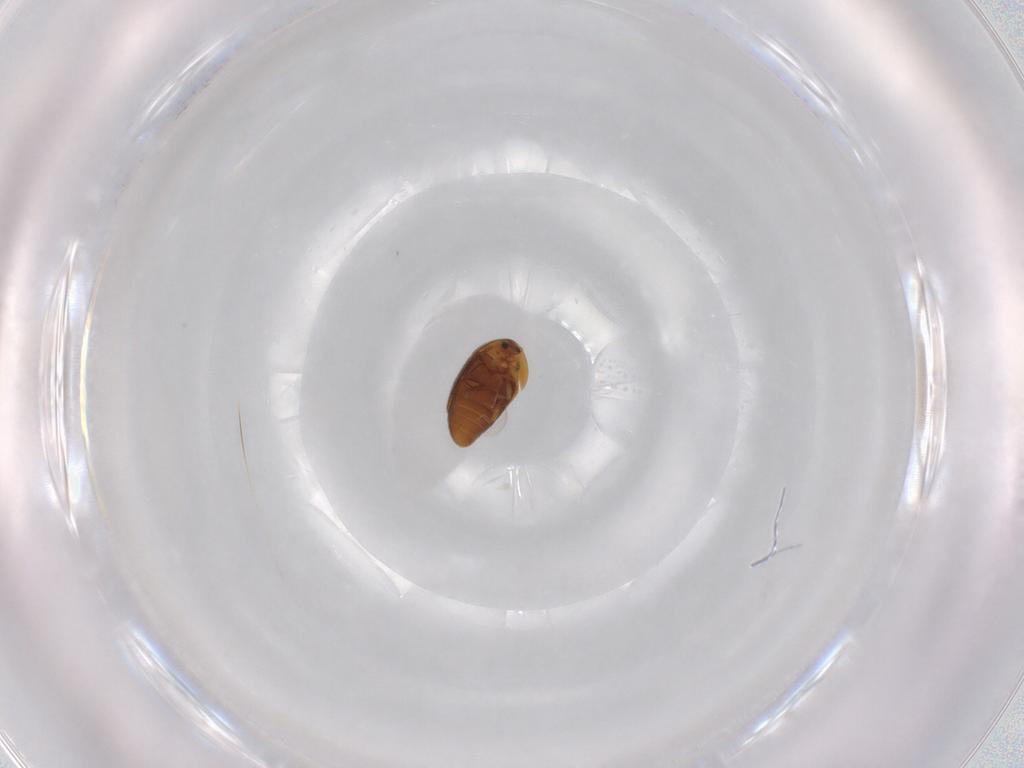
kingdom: Animalia
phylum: Arthropoda
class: Insecta
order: Coleoptera
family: Corylophidae
